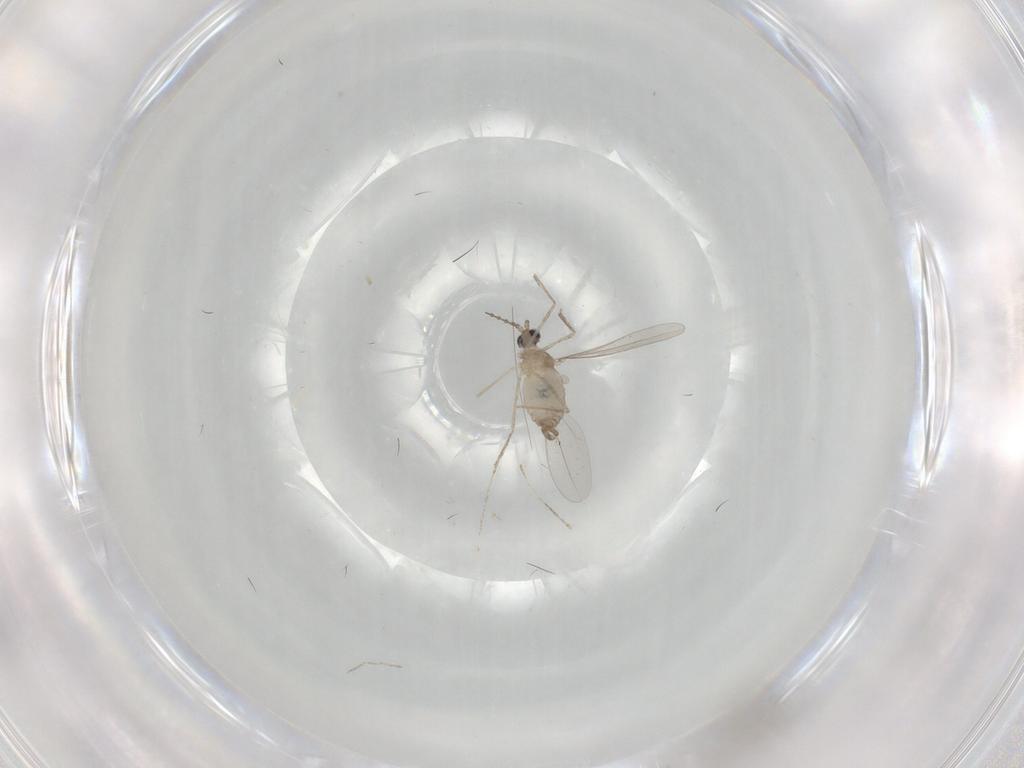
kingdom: Animalia
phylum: Arthropoda
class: Insecta
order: Diptera
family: Cecidomyiidae
